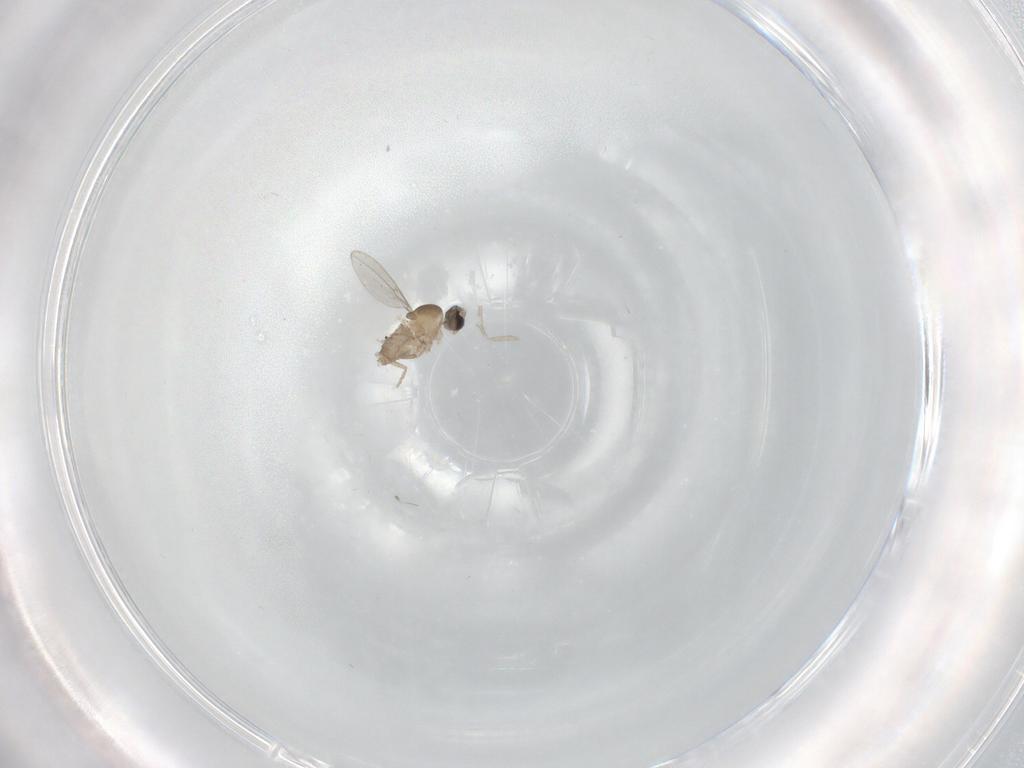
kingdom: Animalia
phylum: Arthropoda
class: Insecta
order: Diptera
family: Cecidomyiidae
